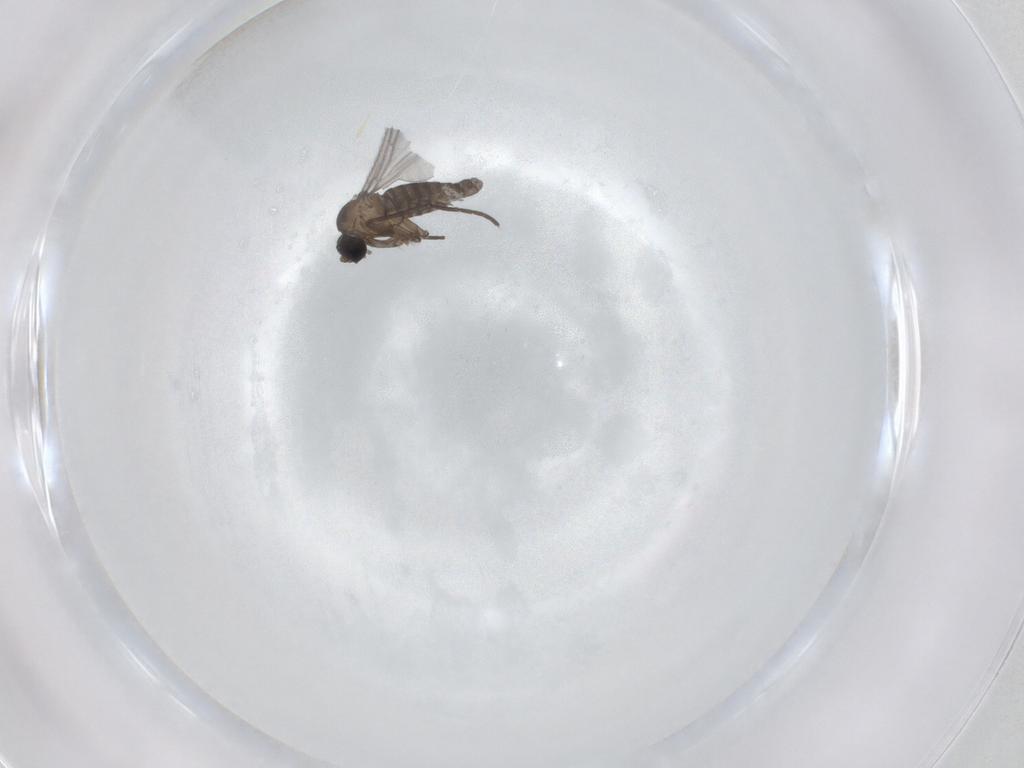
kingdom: Animalia
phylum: Arthropoda
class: Insecta
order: Diptera
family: Sciaridae
